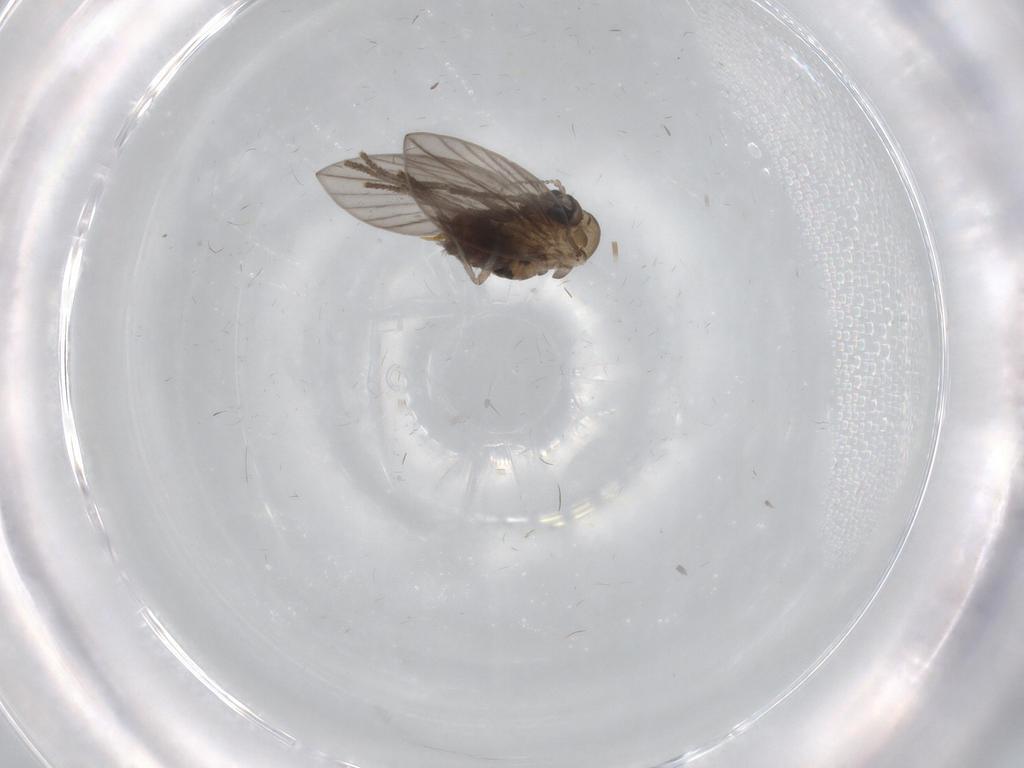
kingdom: Animalia
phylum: Arthropoda
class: Insecta
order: Diptera
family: Psychodidae
